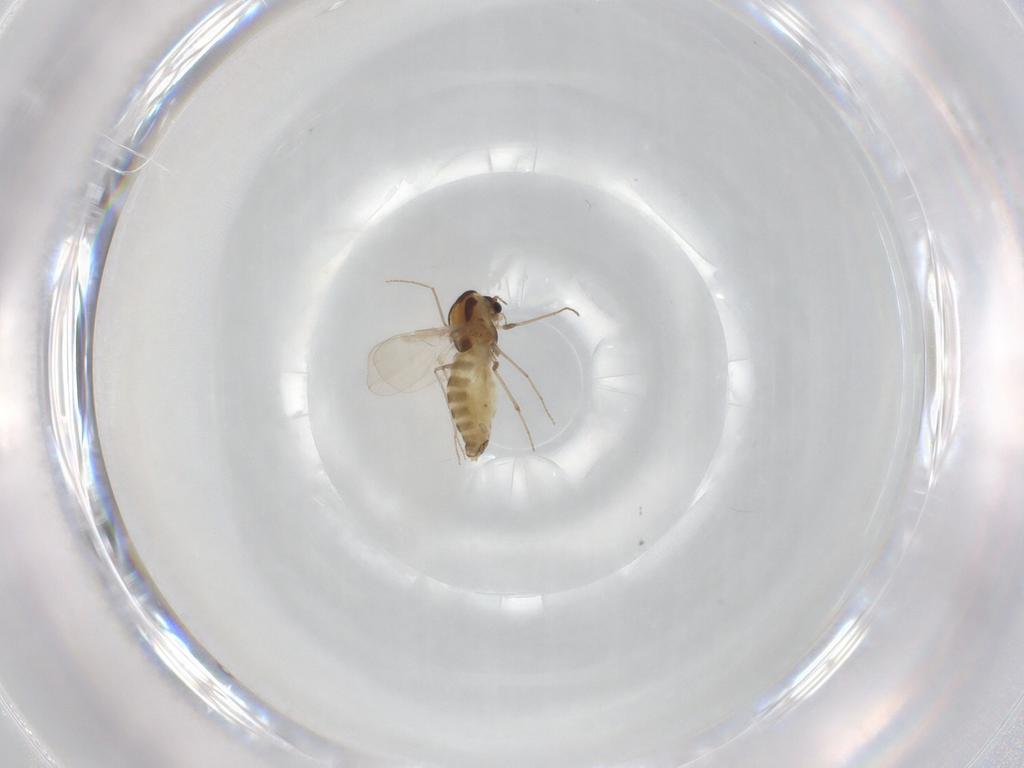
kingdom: Animalia
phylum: Arthropoda
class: Insecta
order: Diptera
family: Chironomidae
